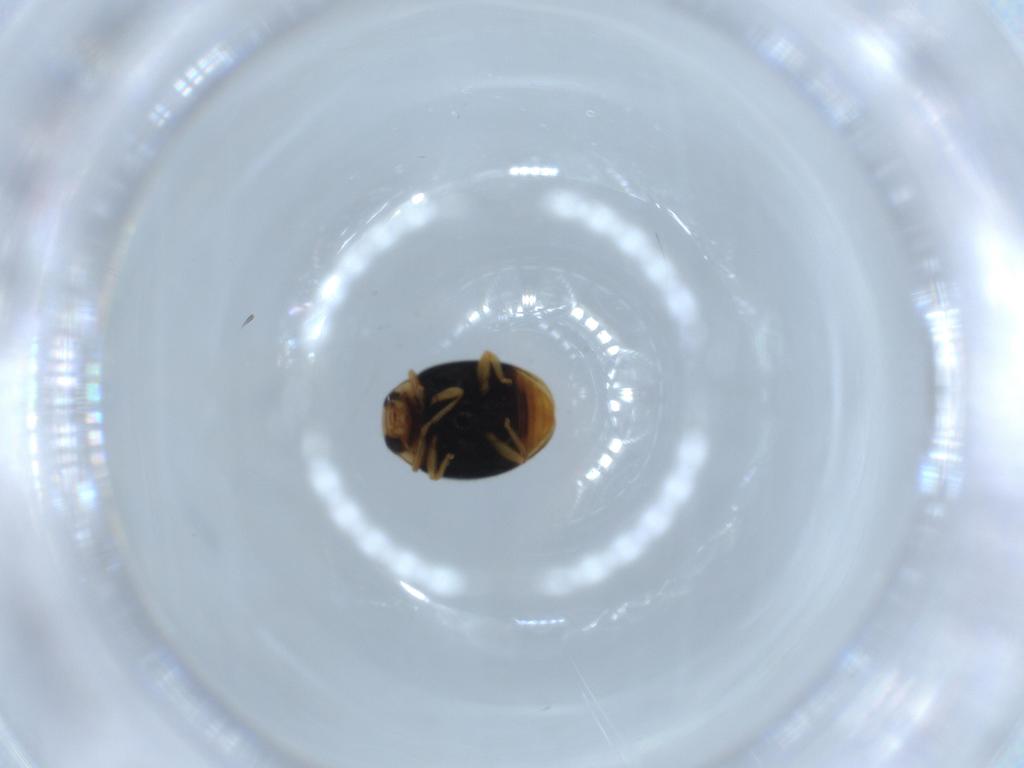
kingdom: Animalia
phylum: Arthropoda
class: Insecta
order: Coleoptera
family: Coccinellidae
